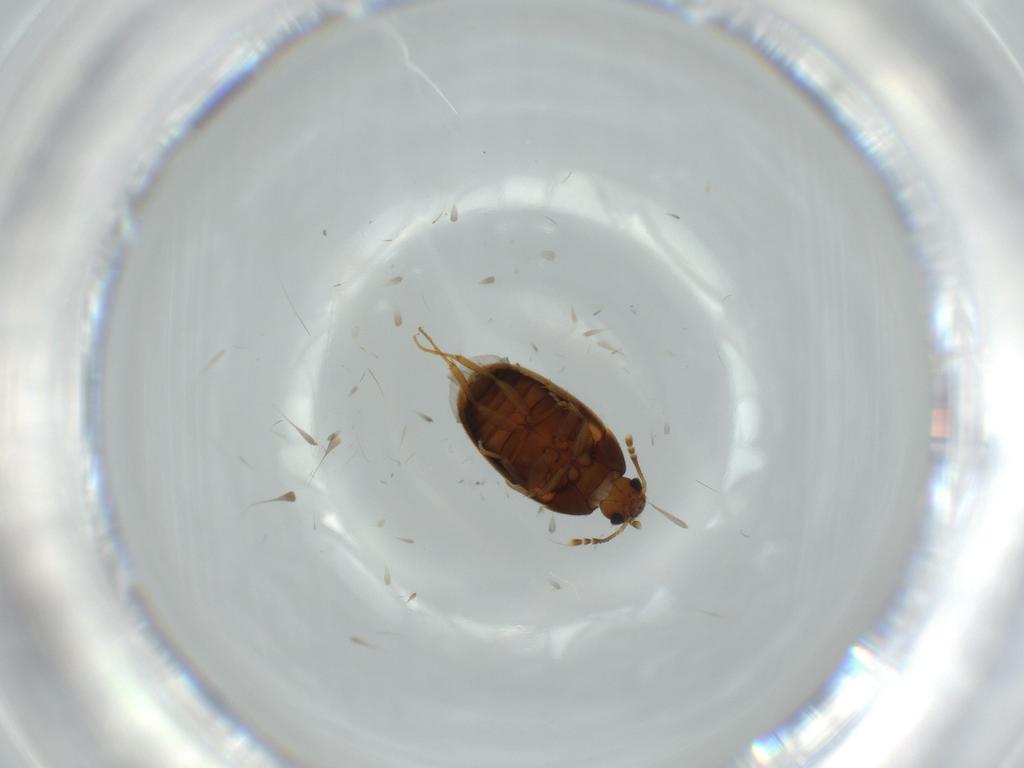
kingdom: Animalia
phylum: Arthropoda
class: Insecta
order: Coleoptera
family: Mycetophagidae
